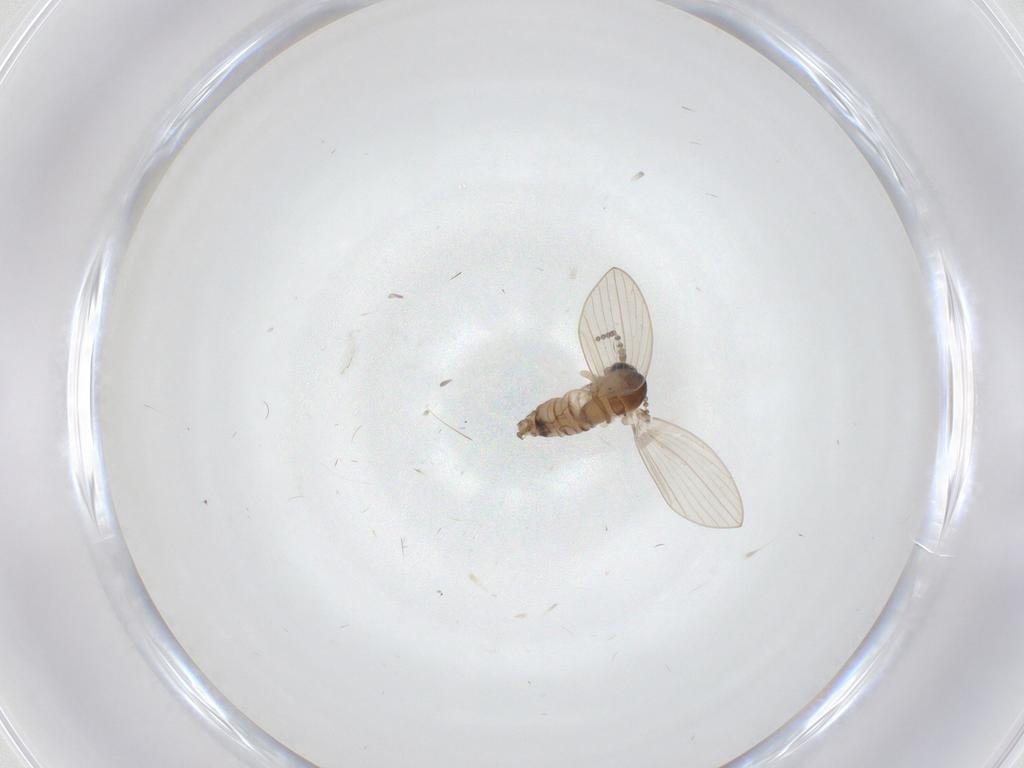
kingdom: Animalia
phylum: Arthropoda
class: Insecta
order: Diptera
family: Psychodidae
